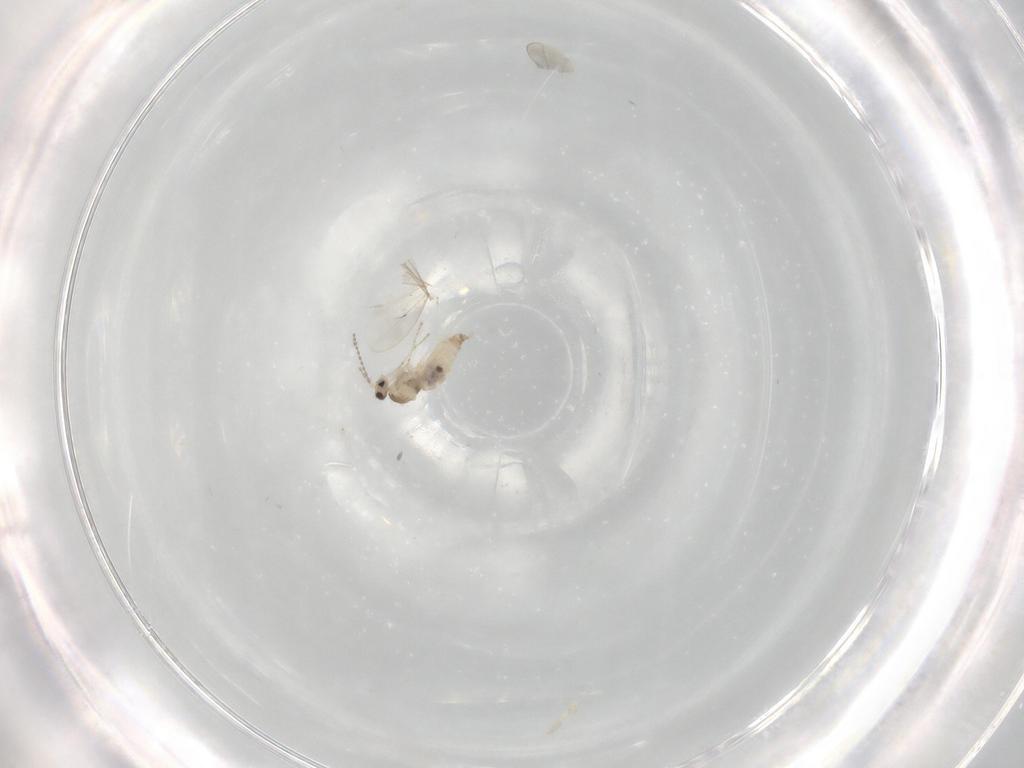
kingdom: Animalia
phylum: Arthropoda
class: Insecta
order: Diptera
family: Cecidomyiidae
